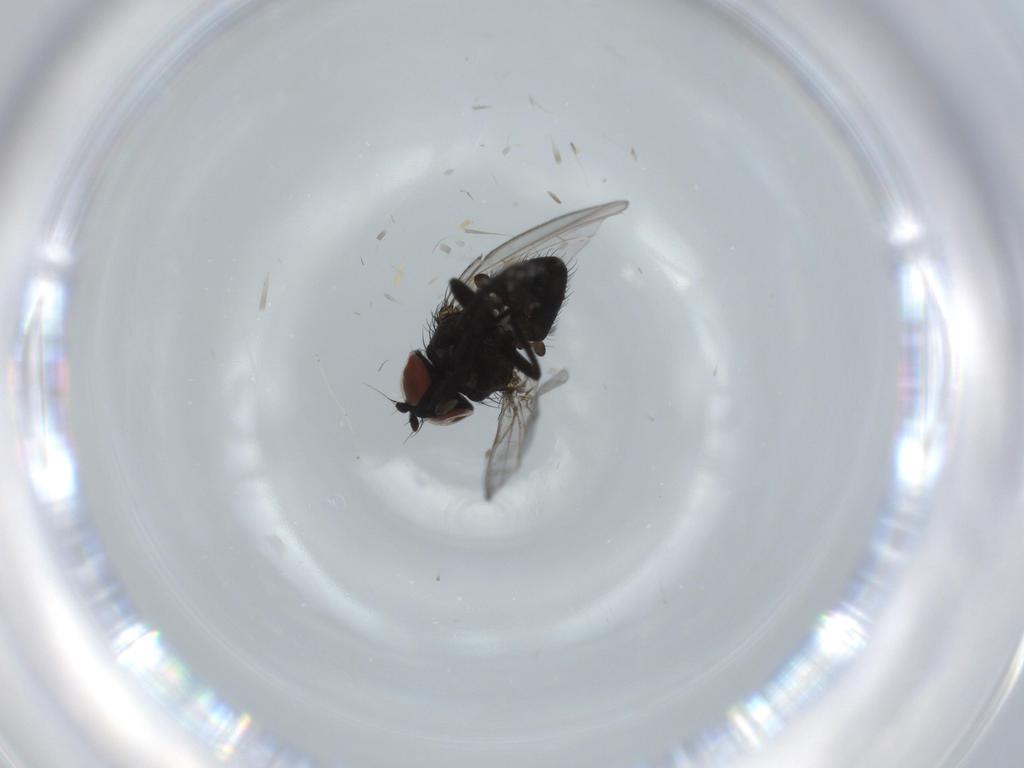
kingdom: Animalia
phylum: Arthropoda
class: Insecta
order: Diptera
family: Milichiidae
